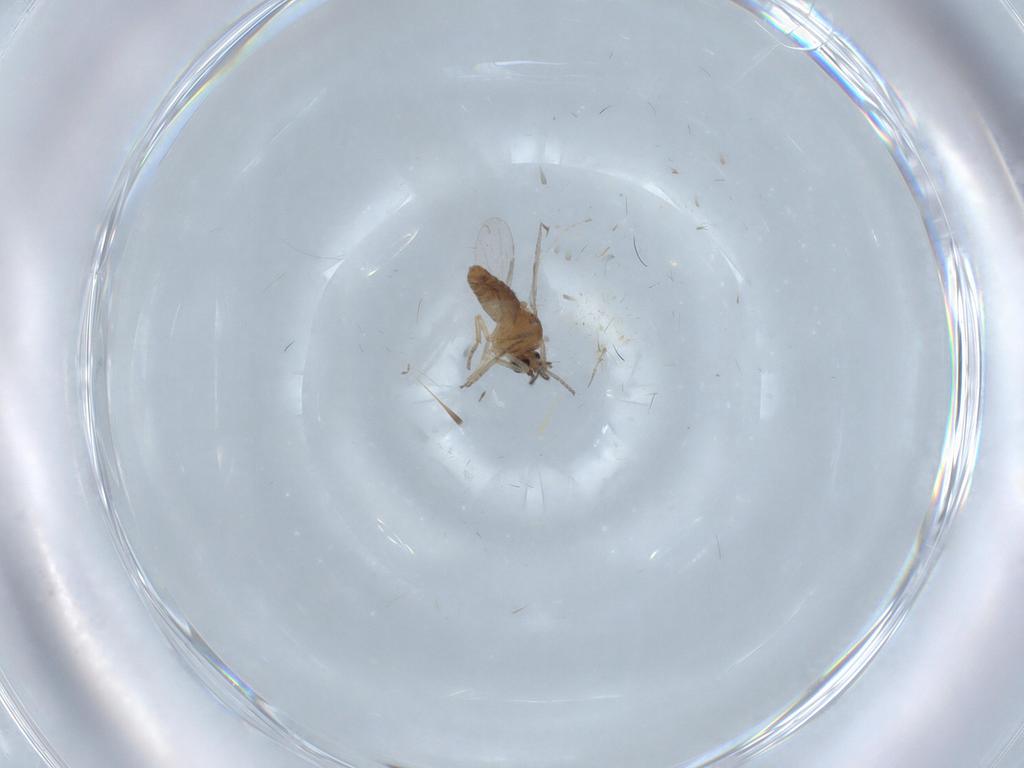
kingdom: Animalia
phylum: Arthropoda
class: Insecta
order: Diptera
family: Ceratopogonidae
